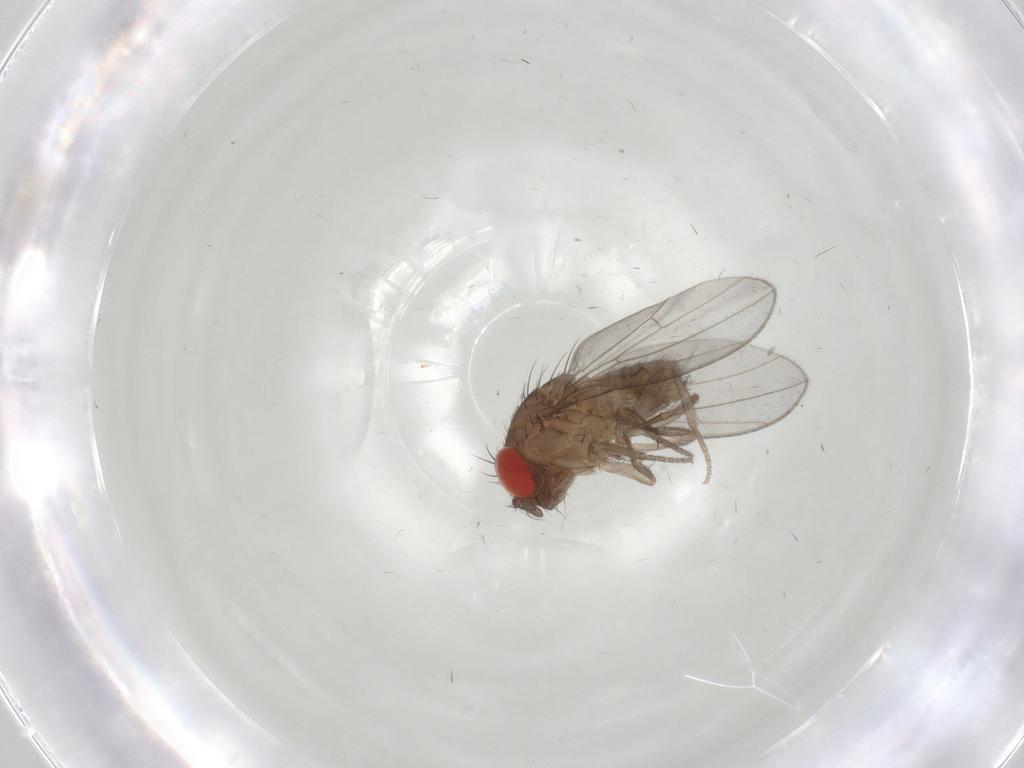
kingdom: Animalia
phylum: Arthropoda
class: Insecta
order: Diptera
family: Drosophilidae
